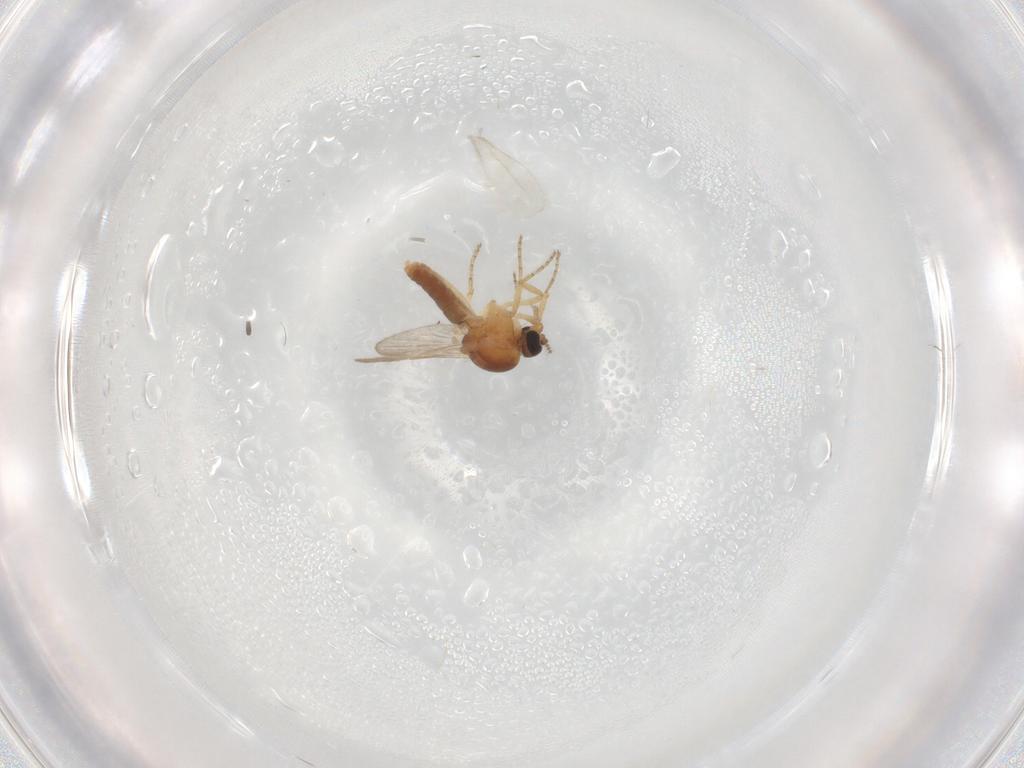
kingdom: Animalia
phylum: Arthropoda
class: Insecta
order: Diptera
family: Ceratopogonidae
